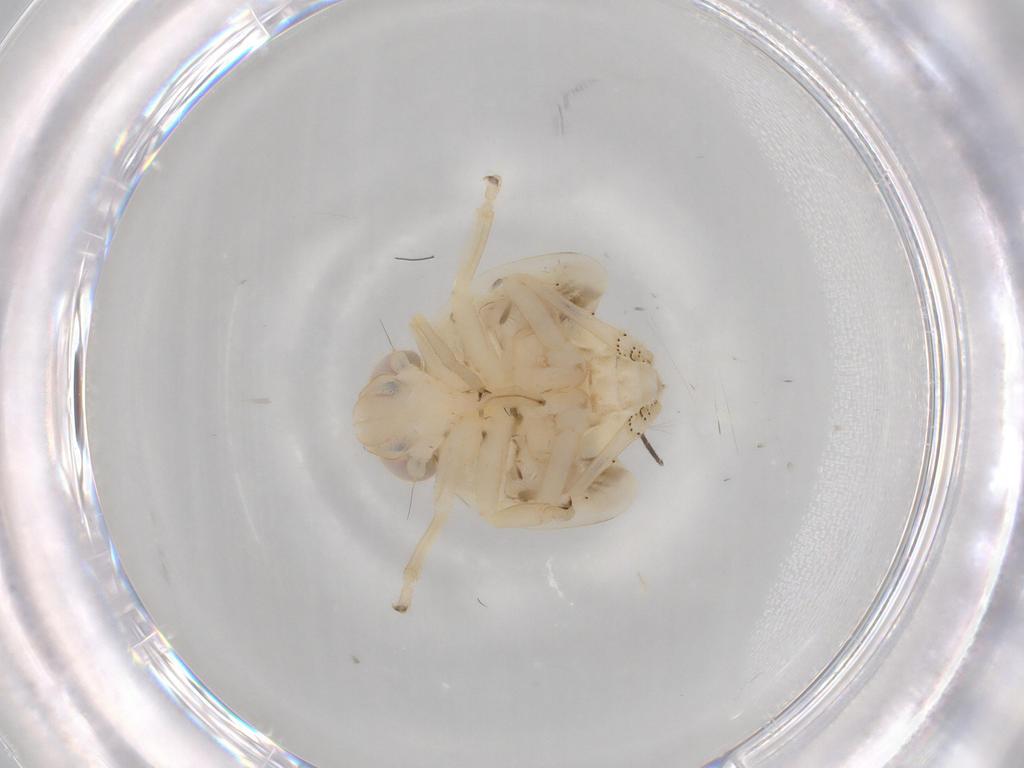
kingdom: Animalia
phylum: Arthropoda
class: Insecta
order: Hemiptera
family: Nogodinidae
